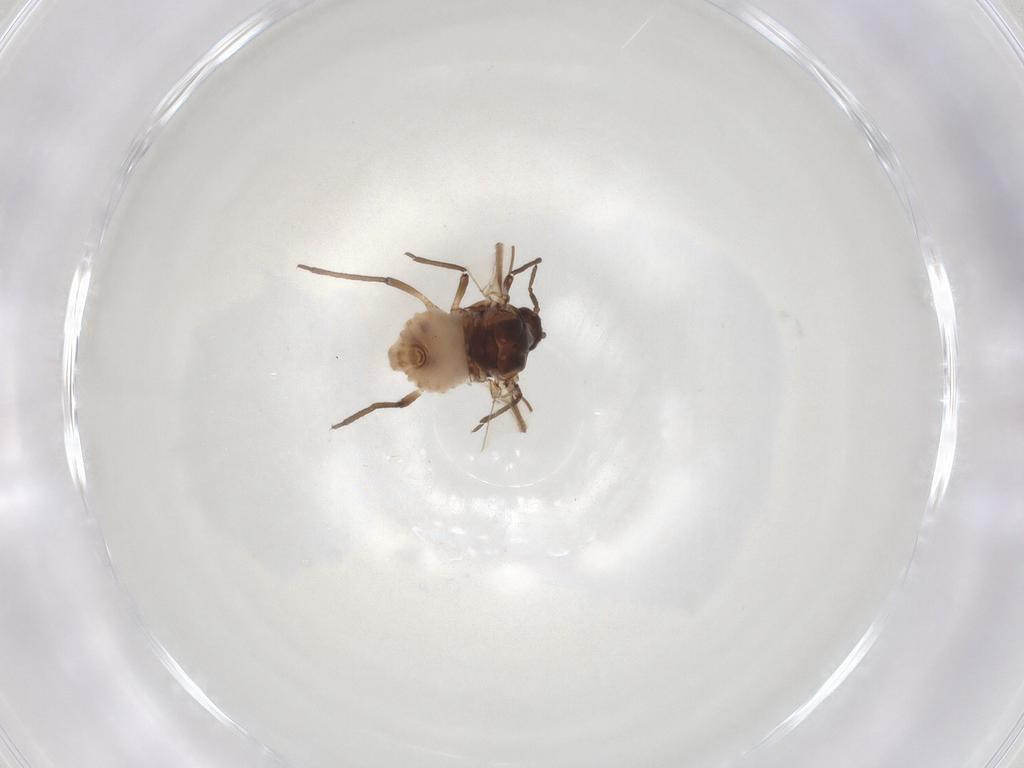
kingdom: Animalia
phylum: Arthropoda
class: Insecta
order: Hemiptera
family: Aphididae
